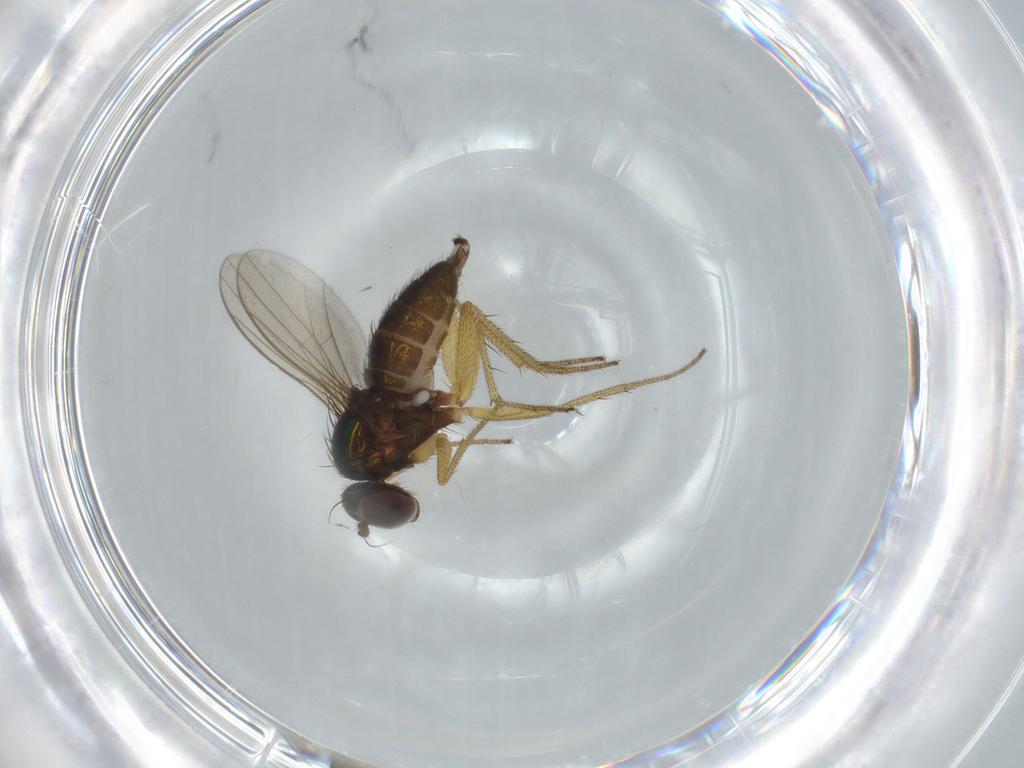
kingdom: Animalia
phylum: Arthropoda
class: Insecta
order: Diptera
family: Dolichopodidae
